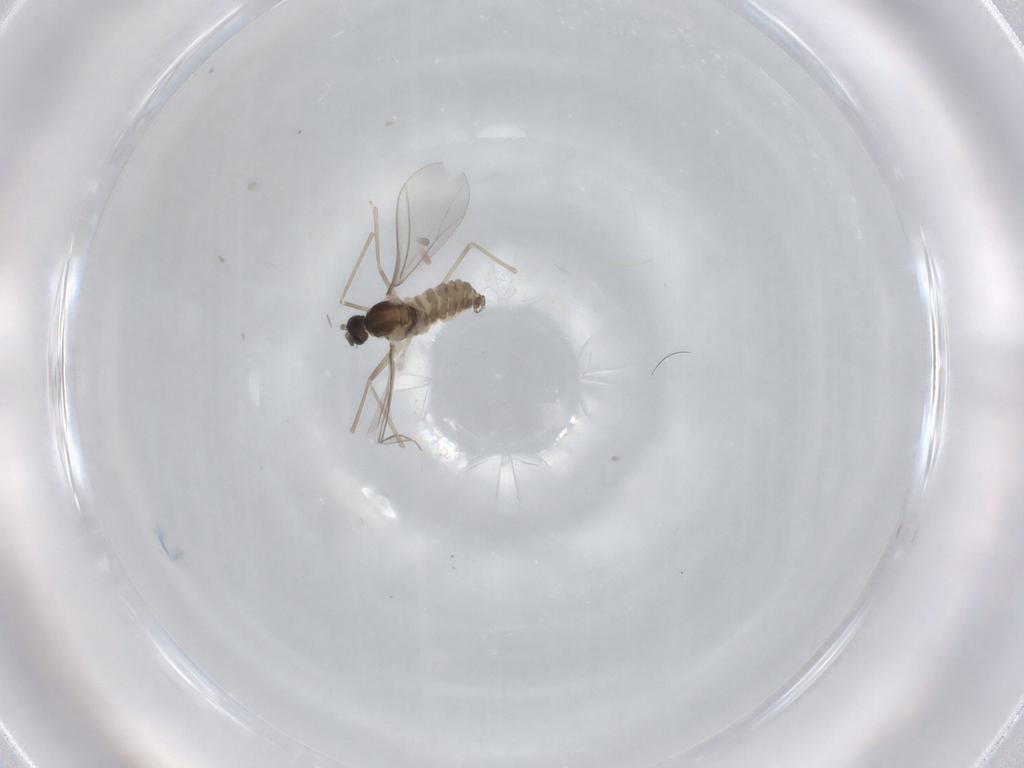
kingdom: Animalia
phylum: Arthropoda
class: Insecta
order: Diptera
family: Cecidomyiidae
